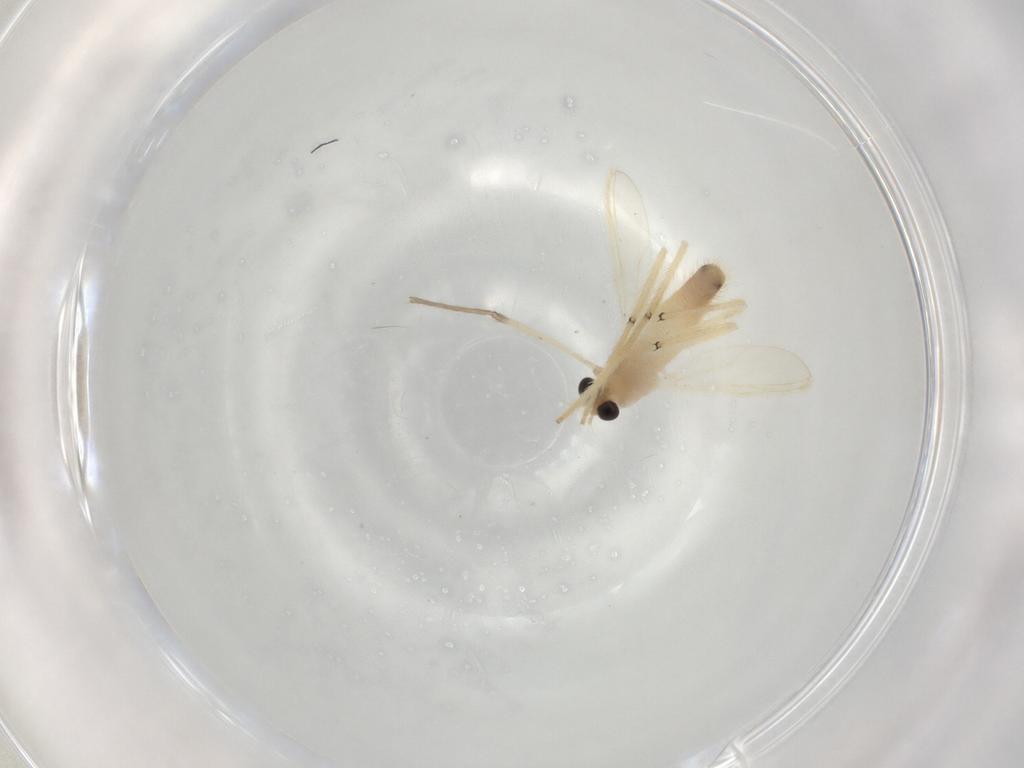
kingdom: Animalia
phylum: Arthropoda
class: Insecta
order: Diptera
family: Chironomidae
